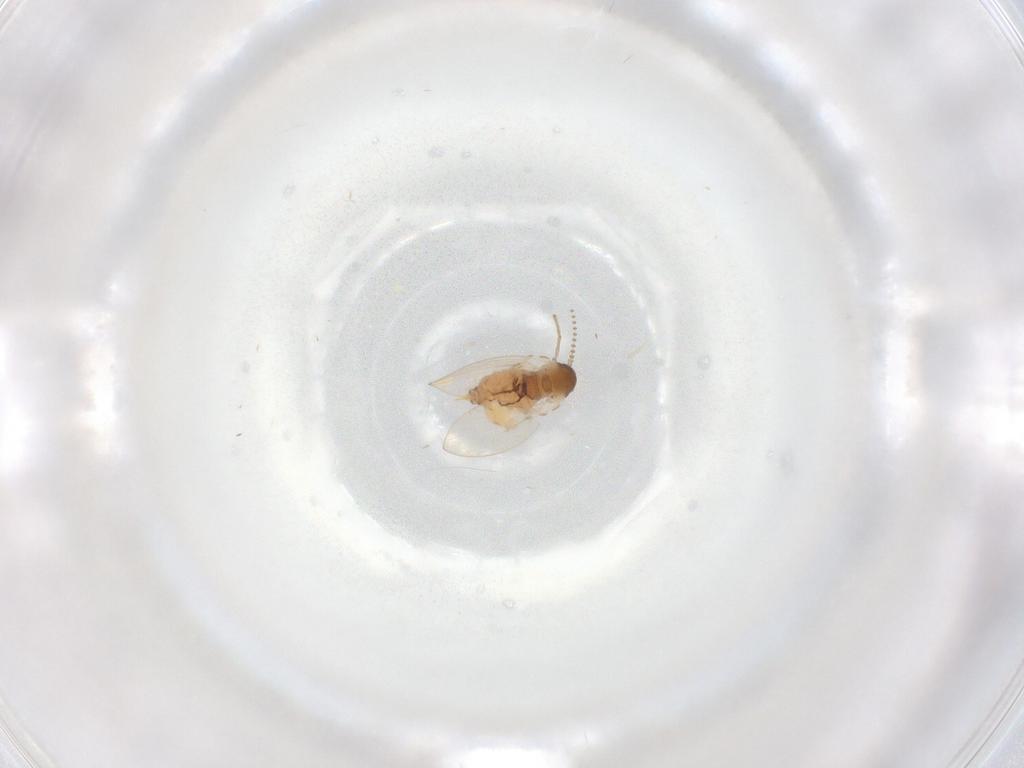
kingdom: Animalia
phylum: Arthropoda
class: Insecta
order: Diptera
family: Psychodidae
